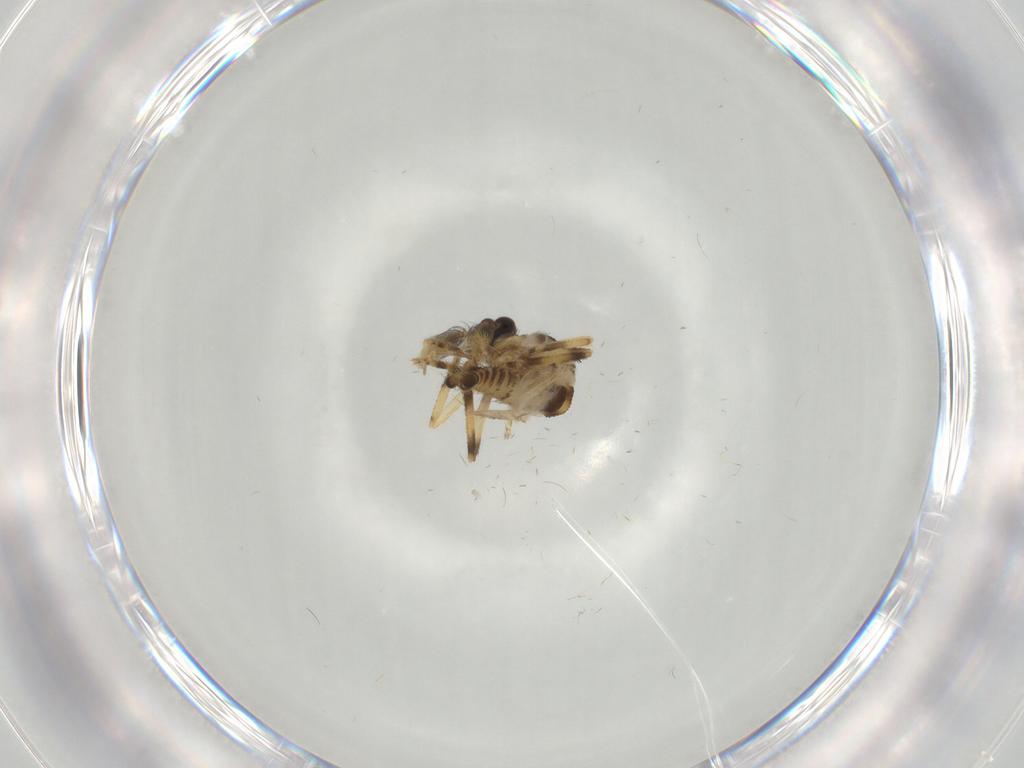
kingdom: Animalia
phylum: Arthropoda
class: Insecta
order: Diptera
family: Ceratopogonidae
